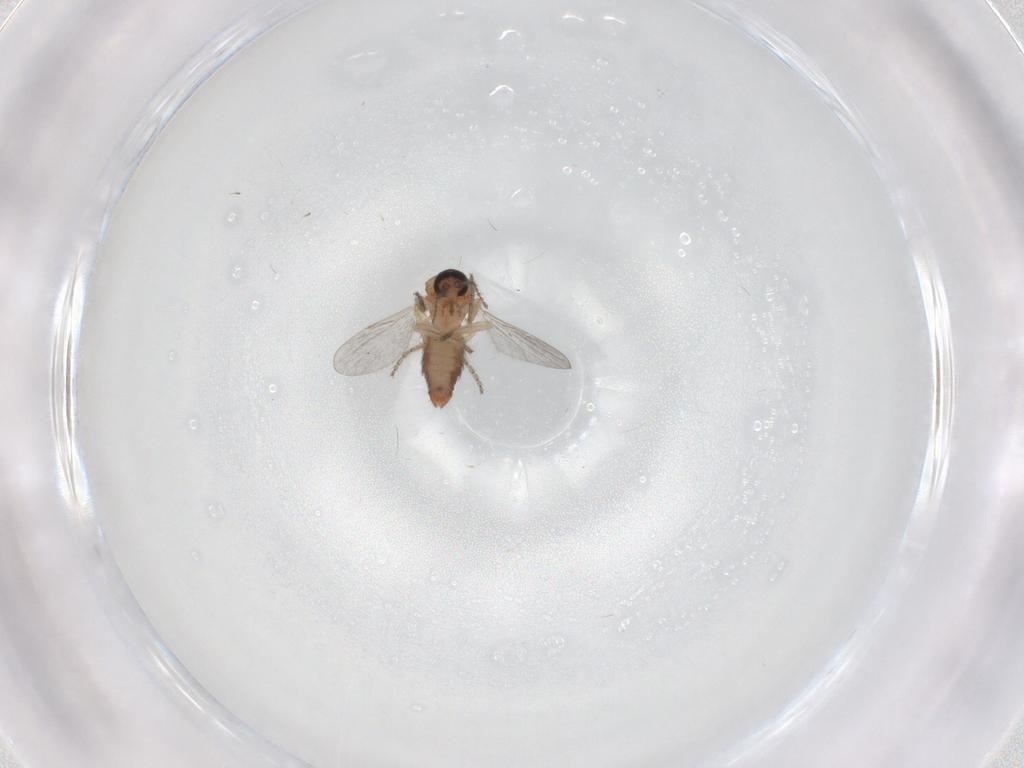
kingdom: Animalia
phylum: Arthropoda
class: Insecta
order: Diptera
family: Ceratopogonidae
